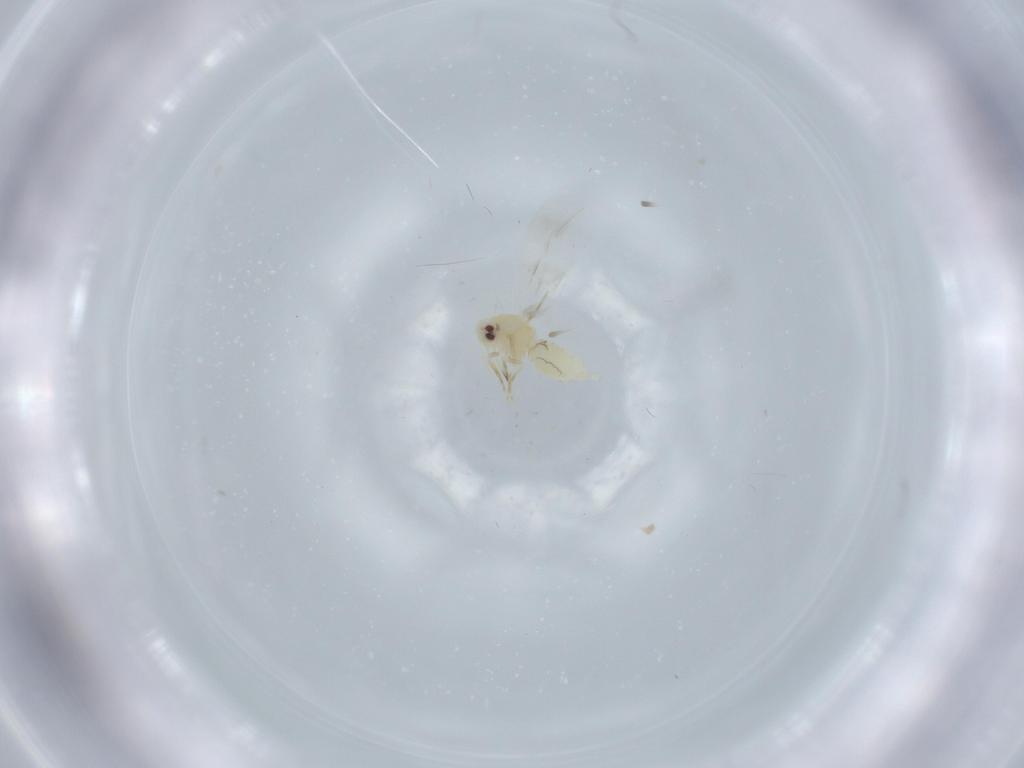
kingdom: Animalia
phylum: Arthropoda
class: Insecta
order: Hemiptera
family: Aleyrodidae
